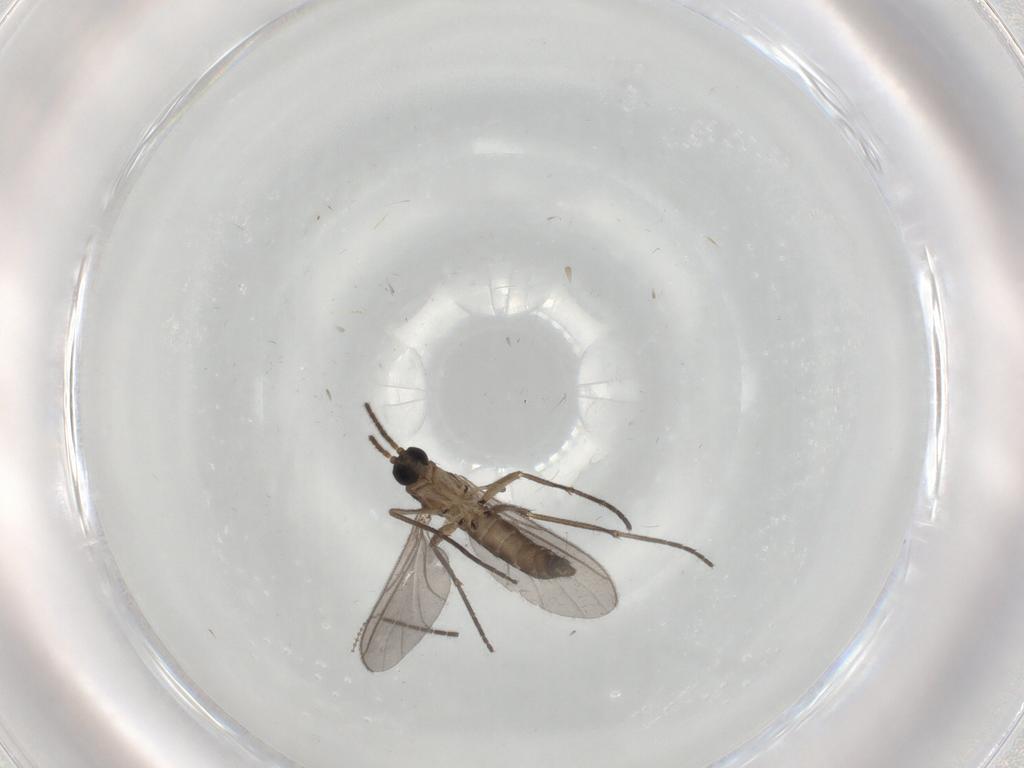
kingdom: Animalia
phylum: Arthropoda
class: Insecta
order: Diptera
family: Sciaridae
